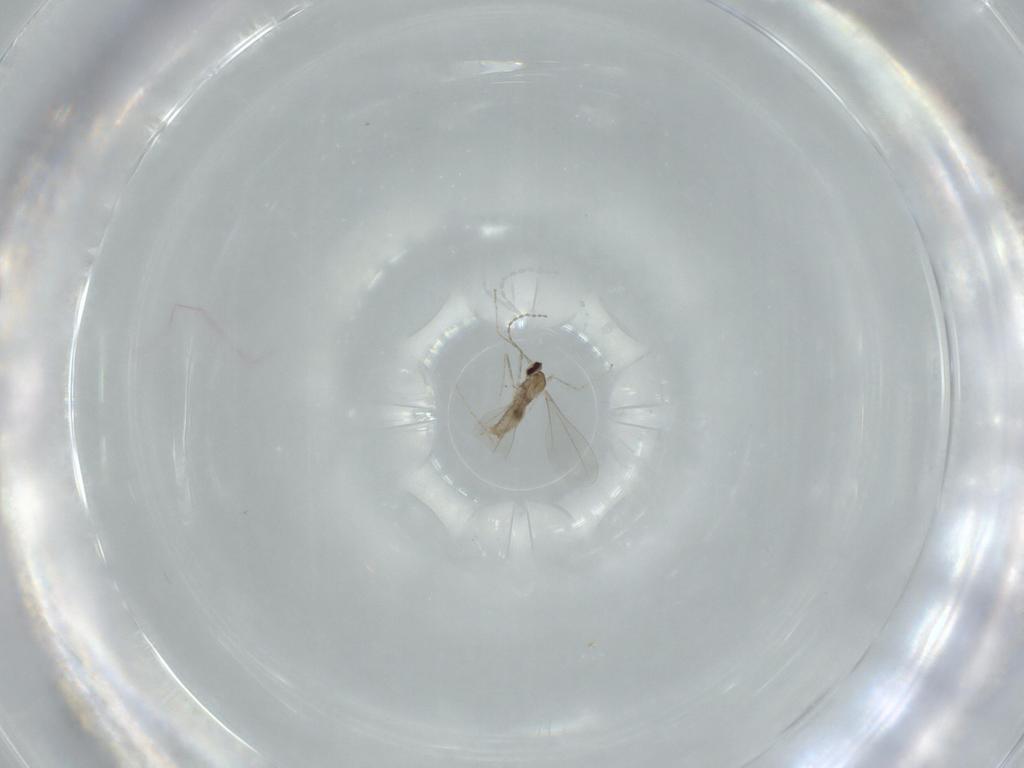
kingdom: Animalia
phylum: Arthropoda
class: Insecta
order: Diptera
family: Cecidomyiidae
